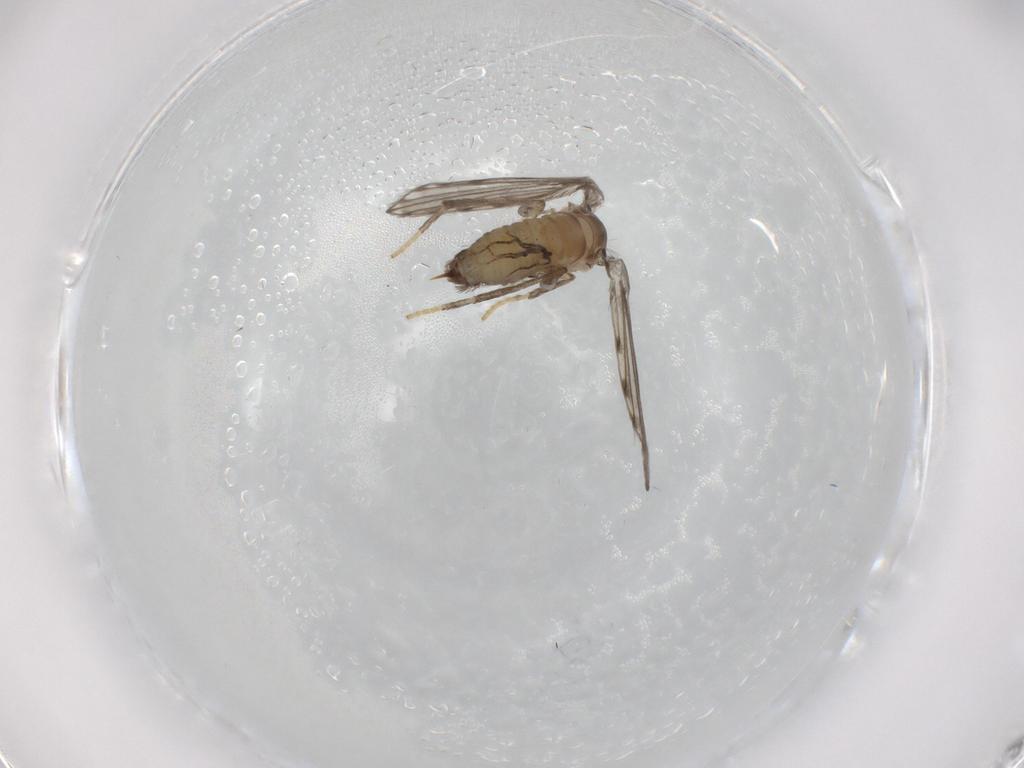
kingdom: Animalia
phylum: Arthropoda
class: Insecta
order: Diptera
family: Psychodidae
